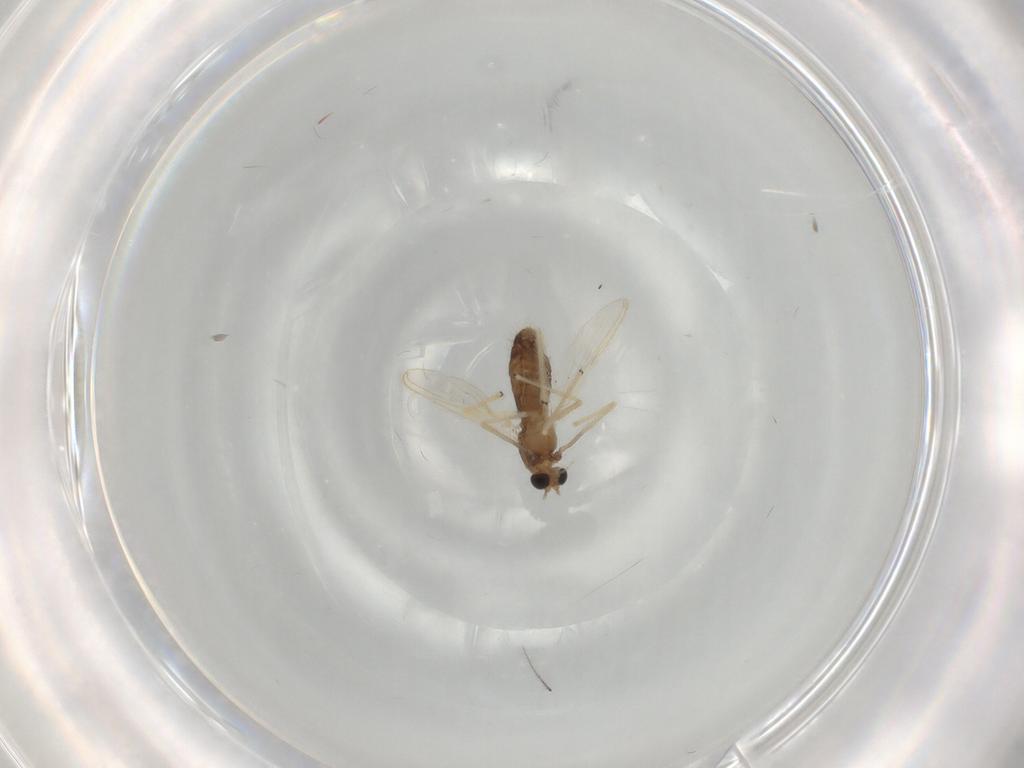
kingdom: Animalia
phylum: Arthropoda
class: Insecta
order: Diptera
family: Chironomidae
